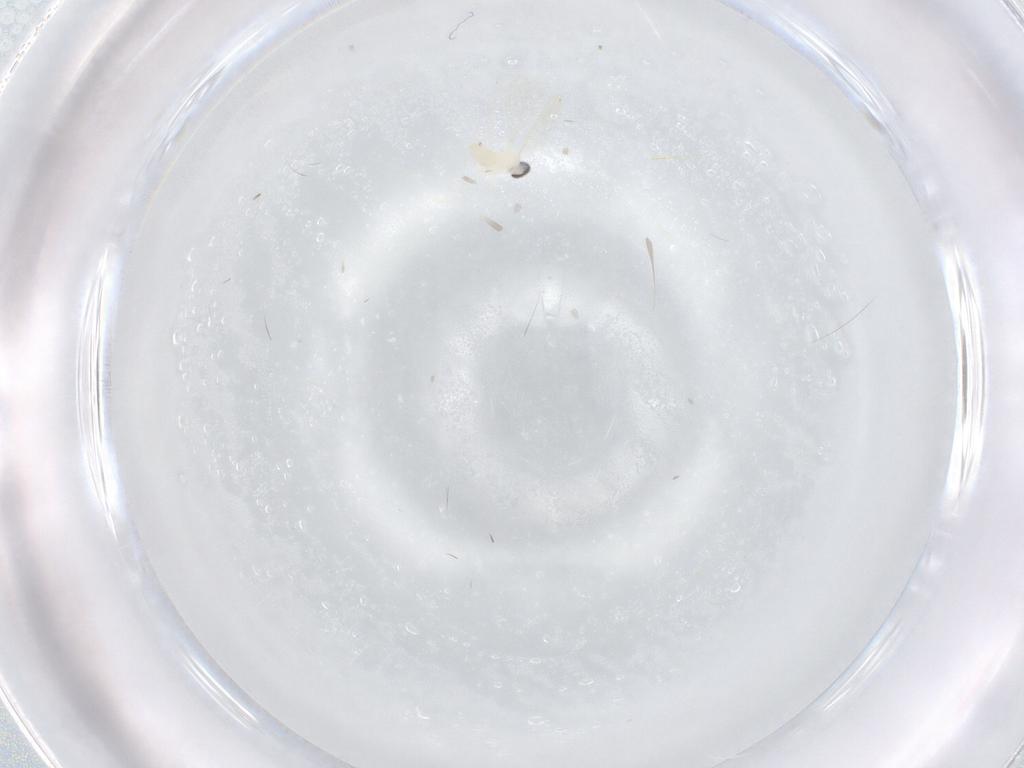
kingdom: Animalia
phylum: Arthropoda
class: Insecta
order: Diptera
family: Cecidomyiidae
